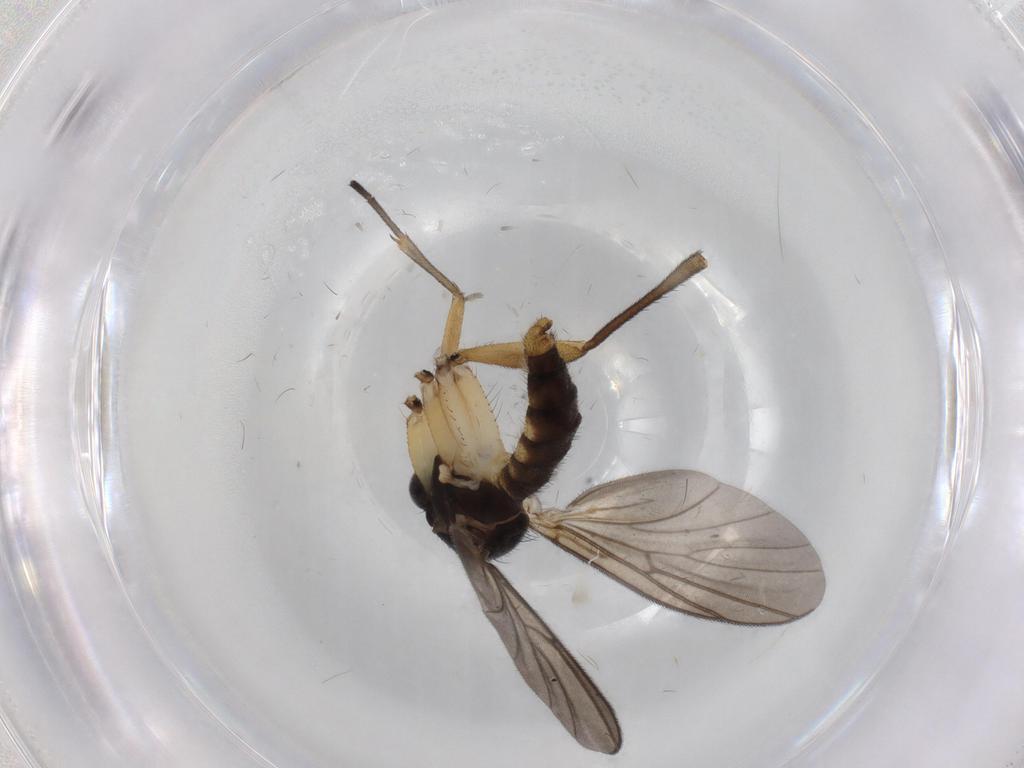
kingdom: Animalia
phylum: Arthropoda
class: Insecta
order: Diptera
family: Mycetophilidae
